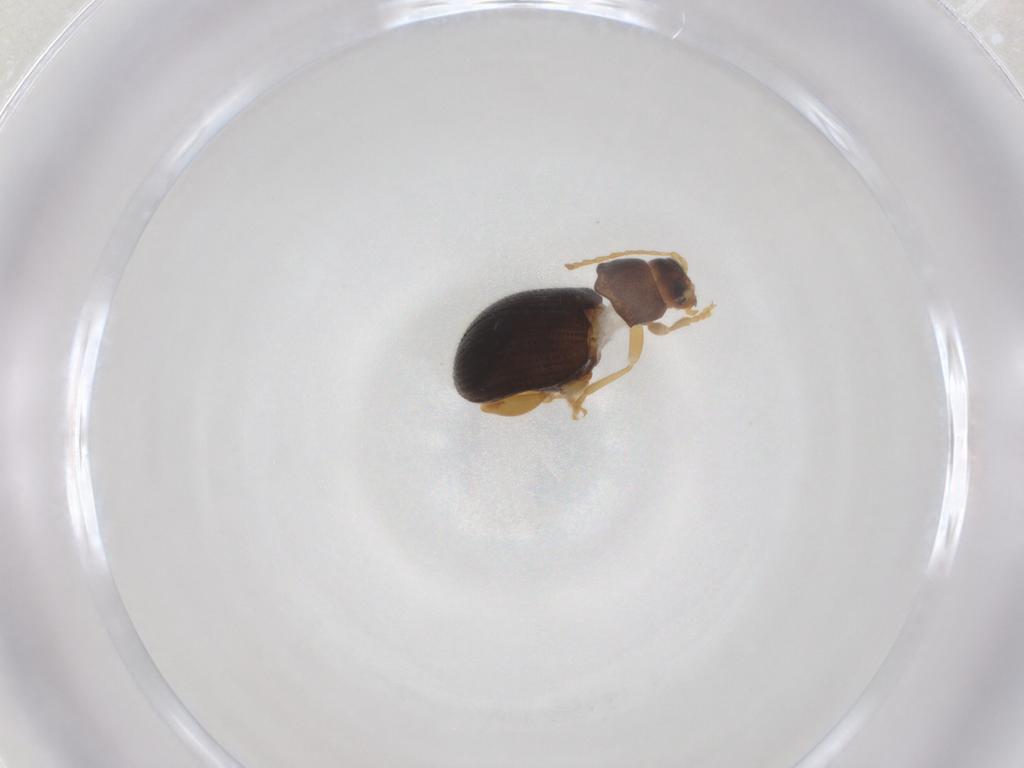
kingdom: Animalia
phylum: Arthropoda
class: Insecta
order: Coleoptera
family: Chrysomelidae
